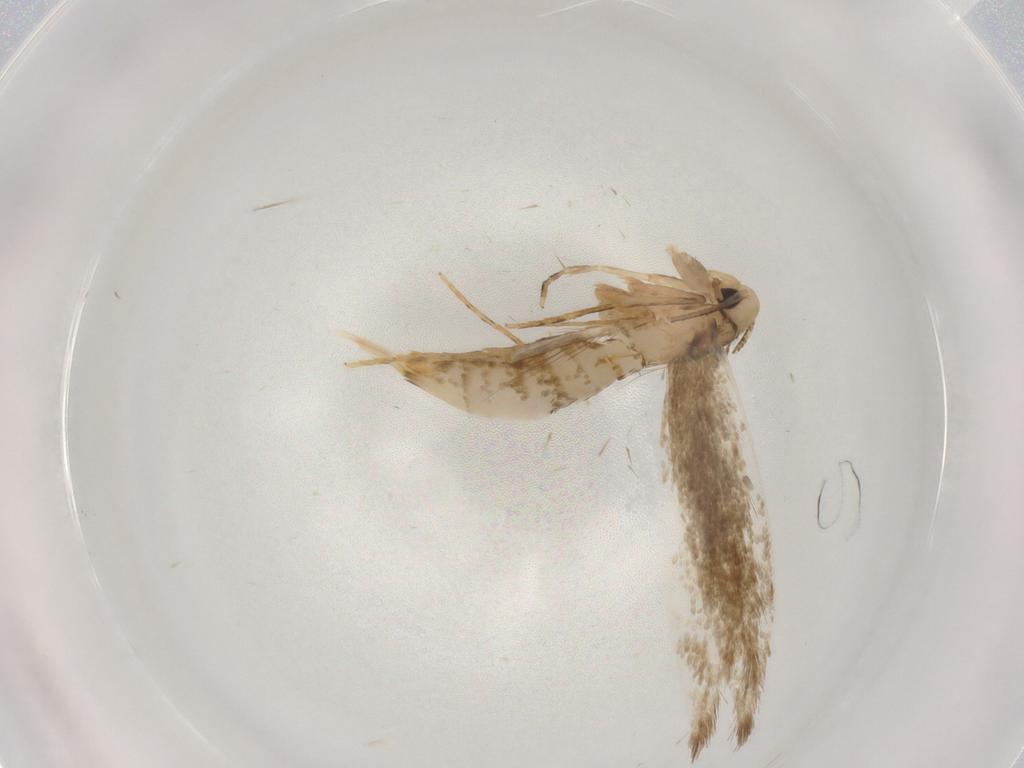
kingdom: Animalia
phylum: Arthropoda
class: Insecta
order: Lepidoptera
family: Tineidae
